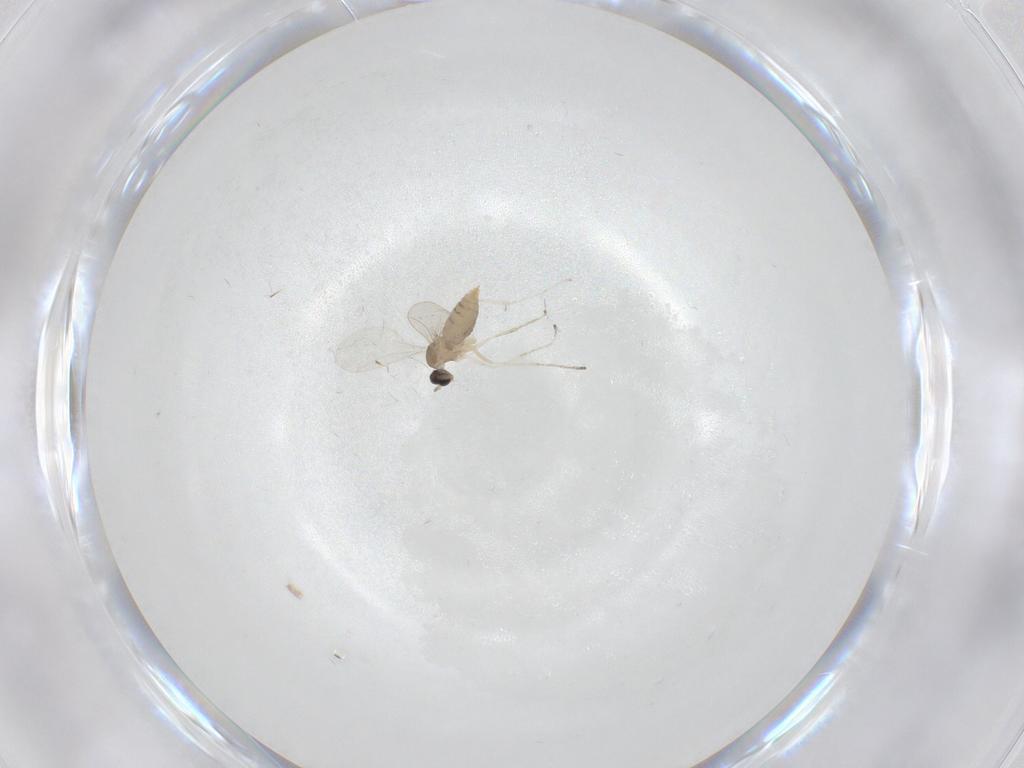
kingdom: Animalia
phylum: Arthropoda
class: Insecta
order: Diptera
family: Cecidomyiidae
